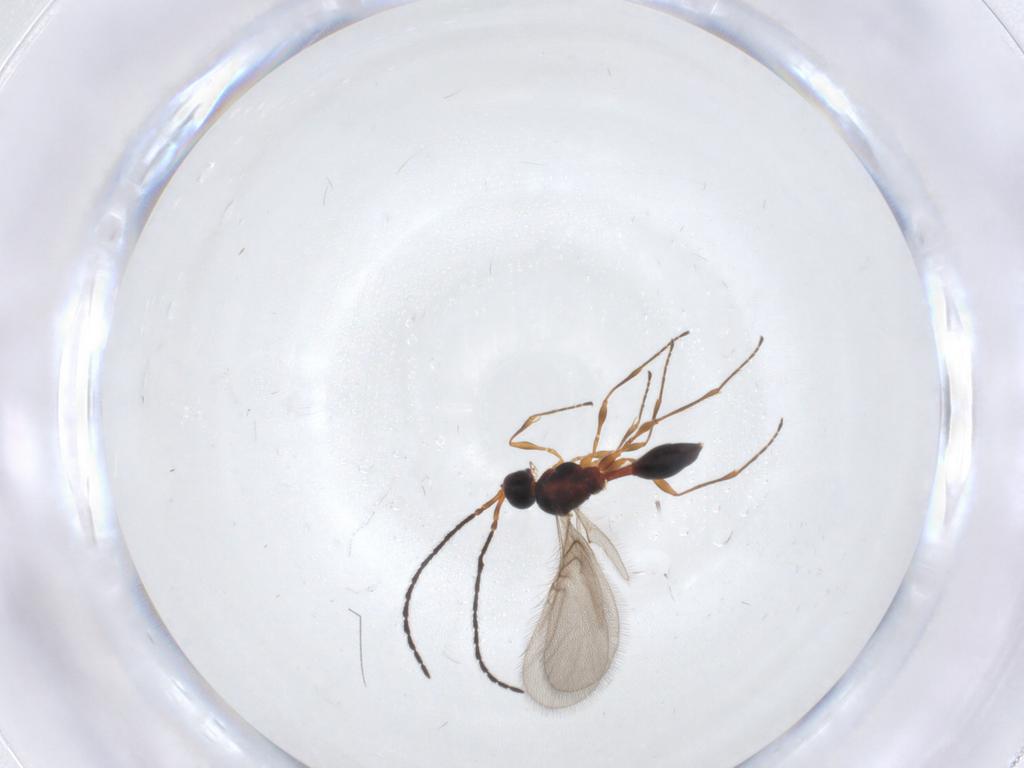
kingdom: Animalia
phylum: Arthropoda
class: Insecta
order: Hymenoptera
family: Diapriidae
